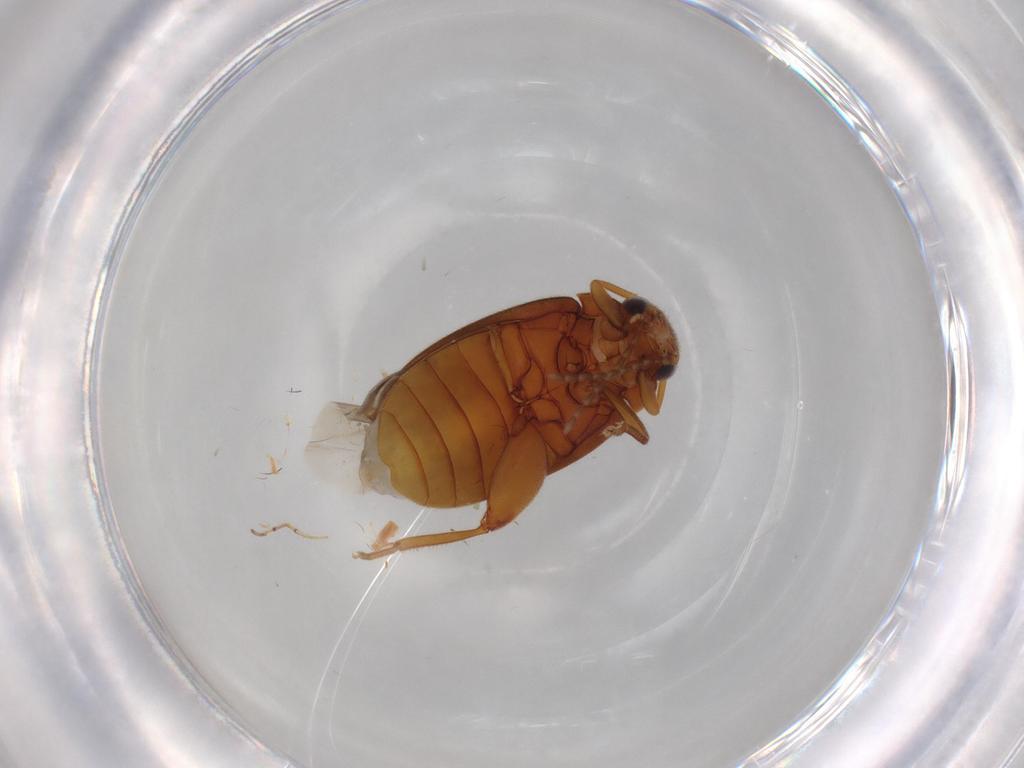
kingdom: Animalia
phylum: Arthropoda
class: Insecta
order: Coleoptera
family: Scirtidae
